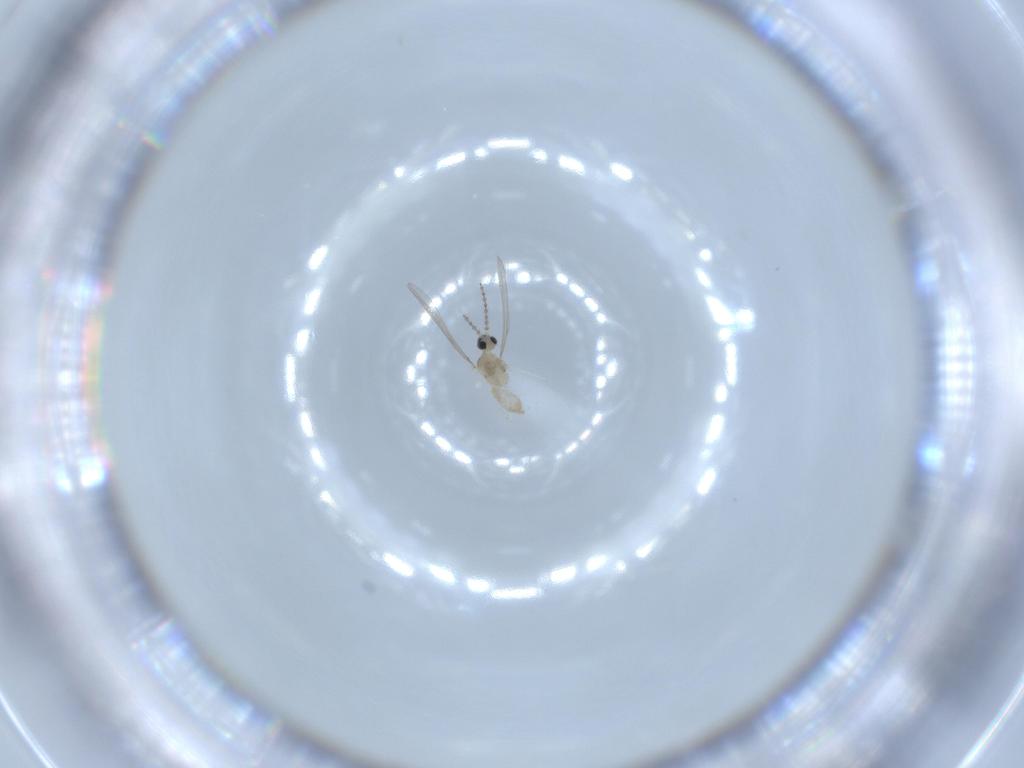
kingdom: Animalia
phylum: Arthropoda
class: Insecta
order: Diptera
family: Cecidomyiidae
